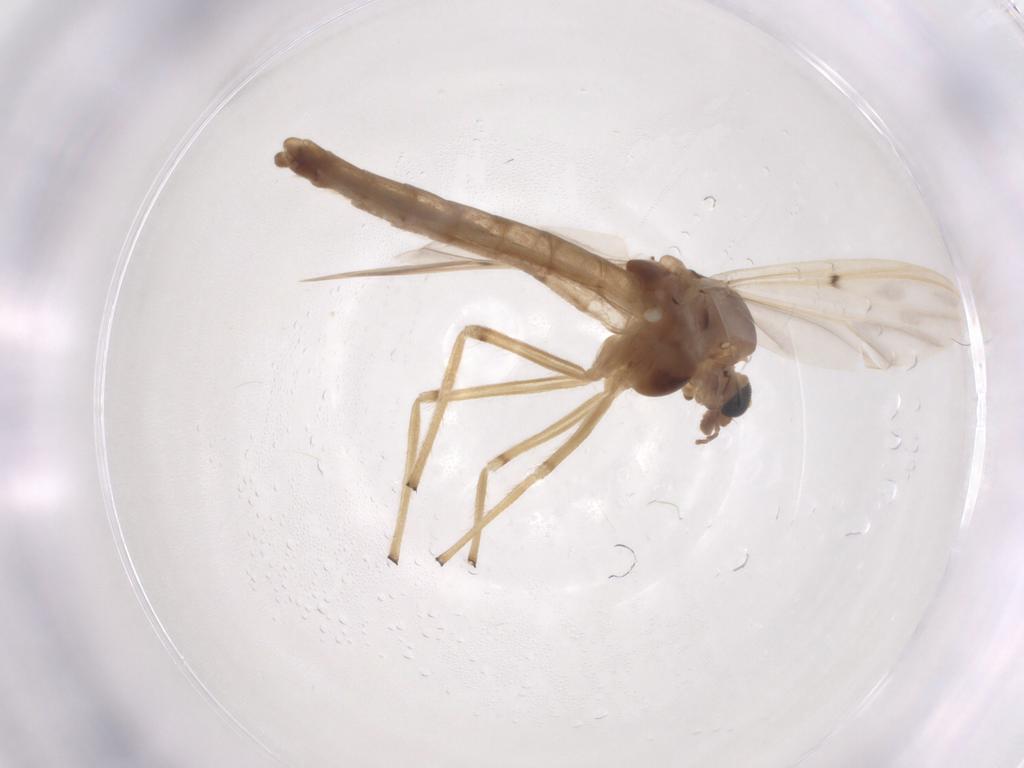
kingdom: Animalia
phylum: Arthropoda
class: Insecta
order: Diptera
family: Chironomidae
